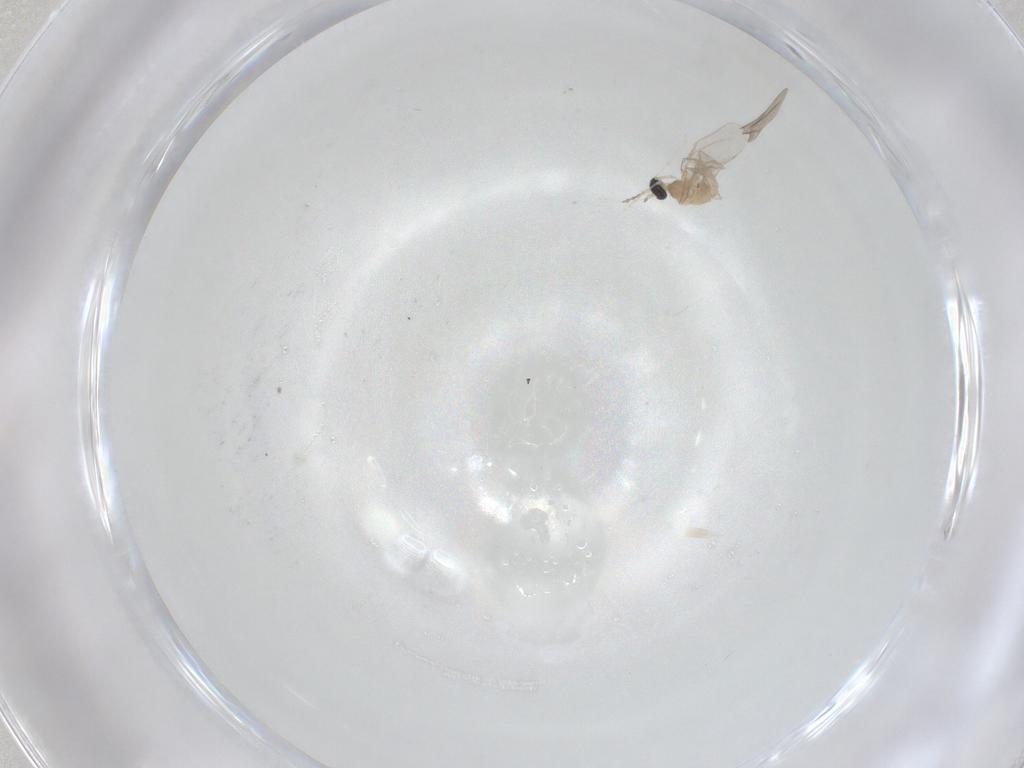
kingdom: Animalia
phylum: Arthropoda
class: Insecta
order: Diptera
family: Cecidomyiidae
